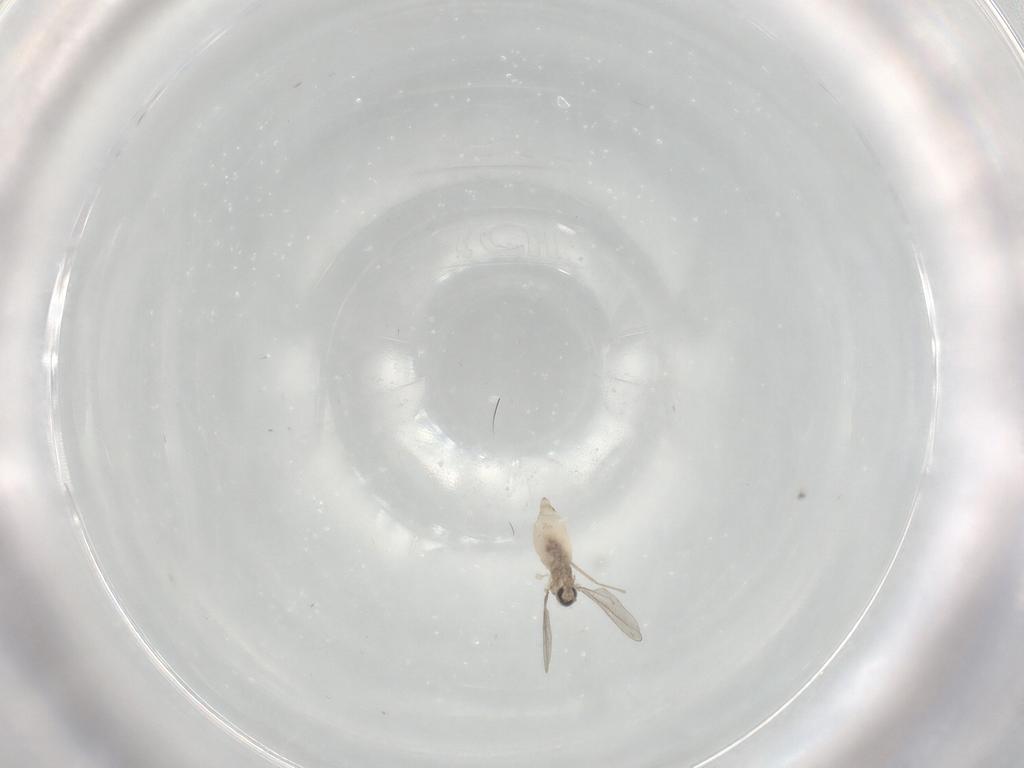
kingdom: Animalia
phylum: Arthropoda
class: Insecta
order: Diptera
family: Cecidomyiidae
